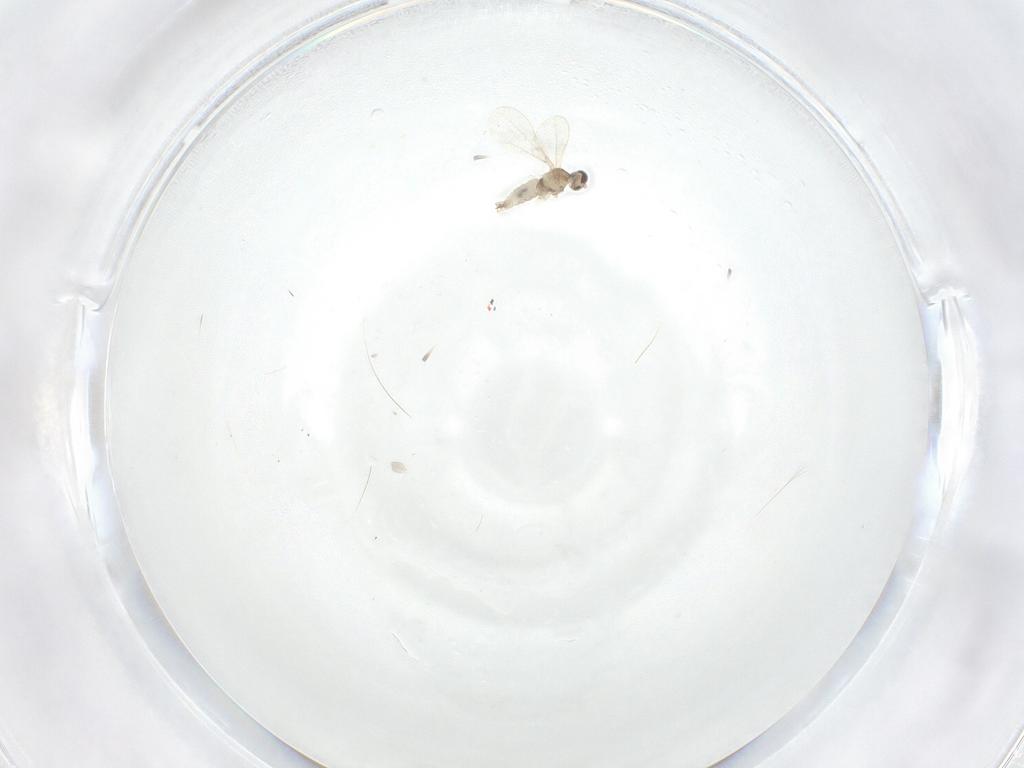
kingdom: Animalia
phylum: Arthropoda
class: Insecta
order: Diptera
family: Cecidomyiidae
